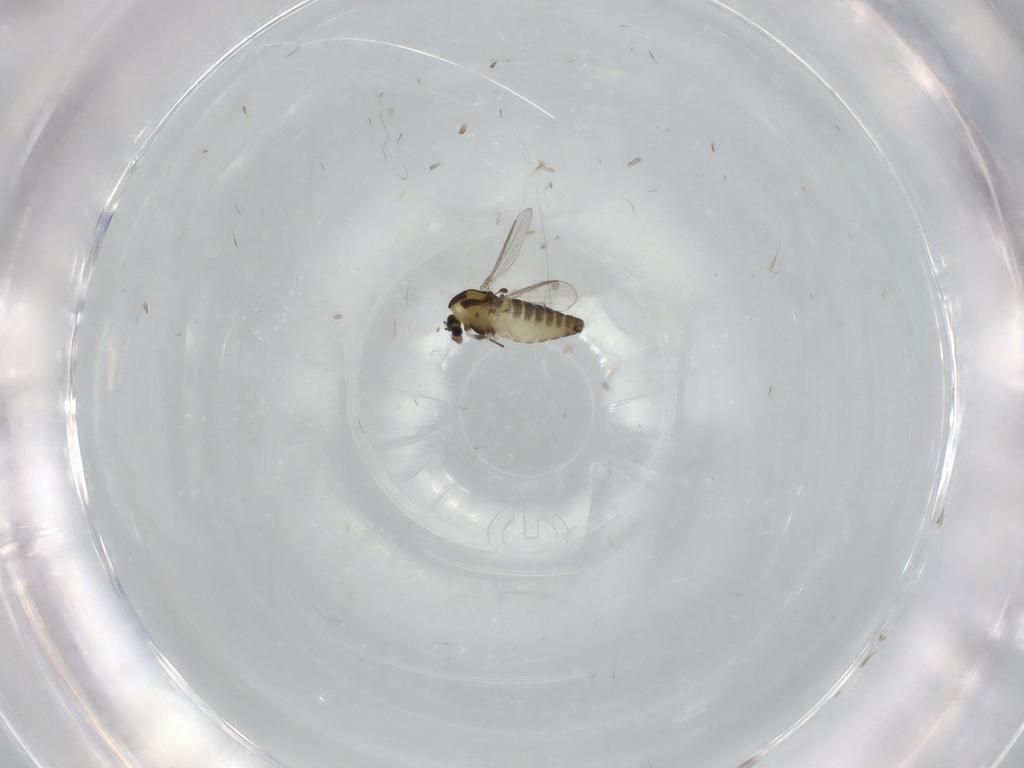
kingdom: Animalia
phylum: Arthropoda
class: Insecta
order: Diptera
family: Chironomidae
